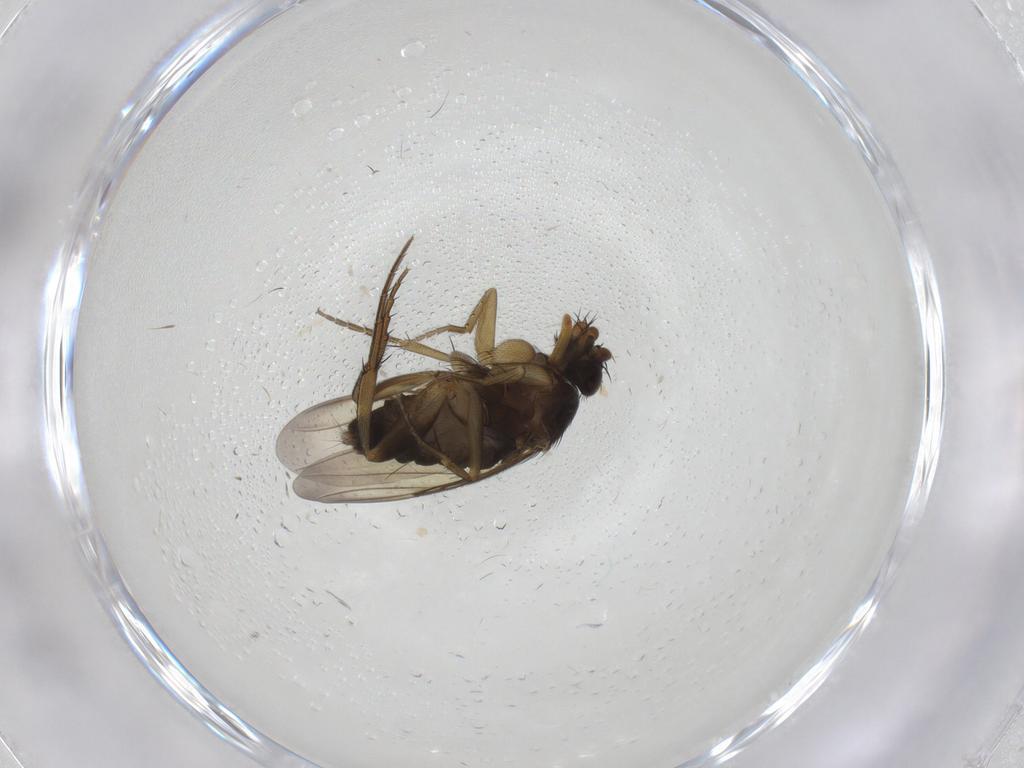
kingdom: Animalia
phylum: Arthropoda
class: Insecta
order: Diptera
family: Phoridae
